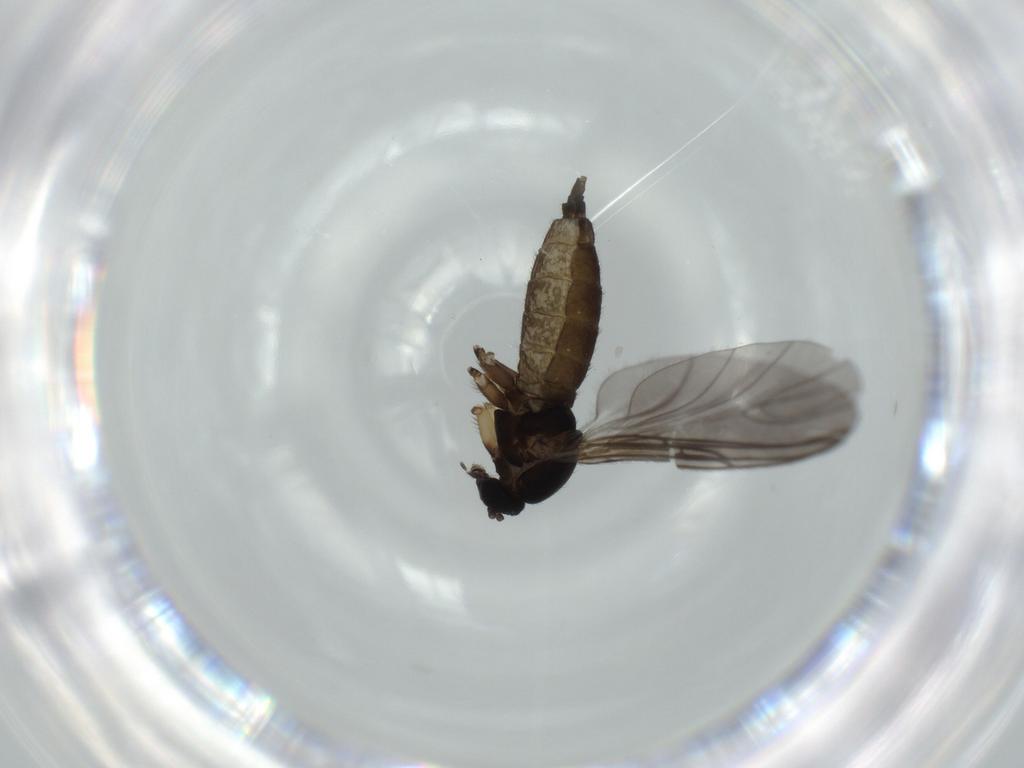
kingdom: Animalia
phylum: Arthropoda
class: Insecta
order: Diptera
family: Sciaridae
